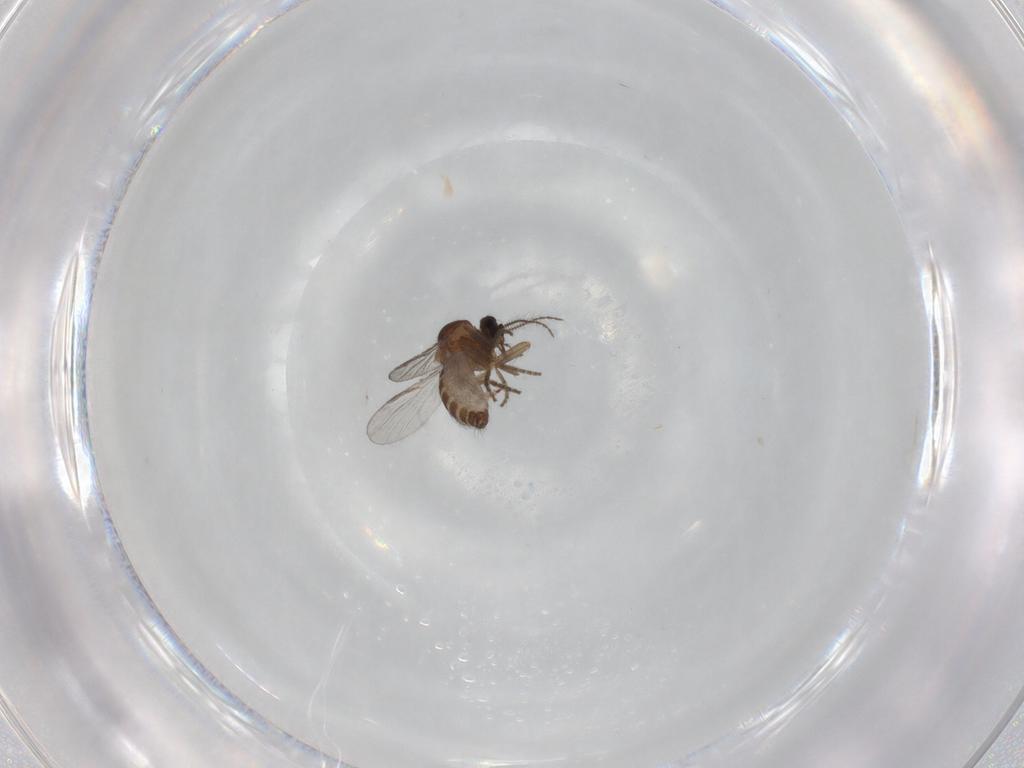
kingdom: Animalia
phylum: Arthropoda
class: Insecta
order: Diptera
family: Ceratopogonidae
